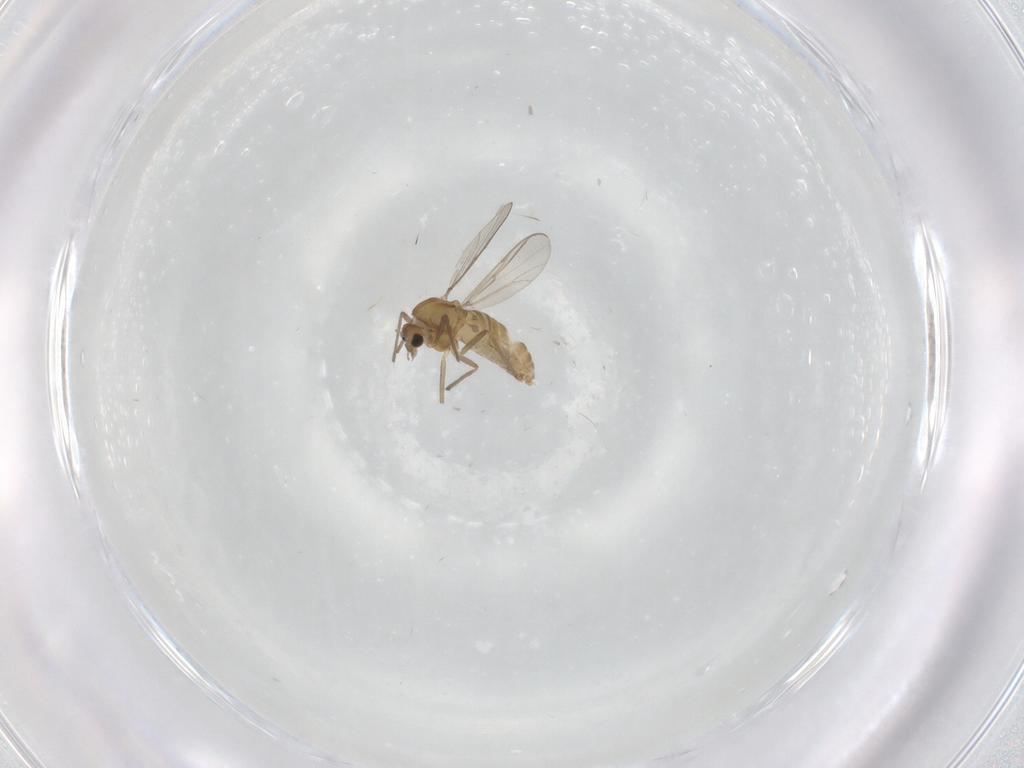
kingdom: Animalia
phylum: Arthropoda
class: Insecta
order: Diptera
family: Chironomidae
